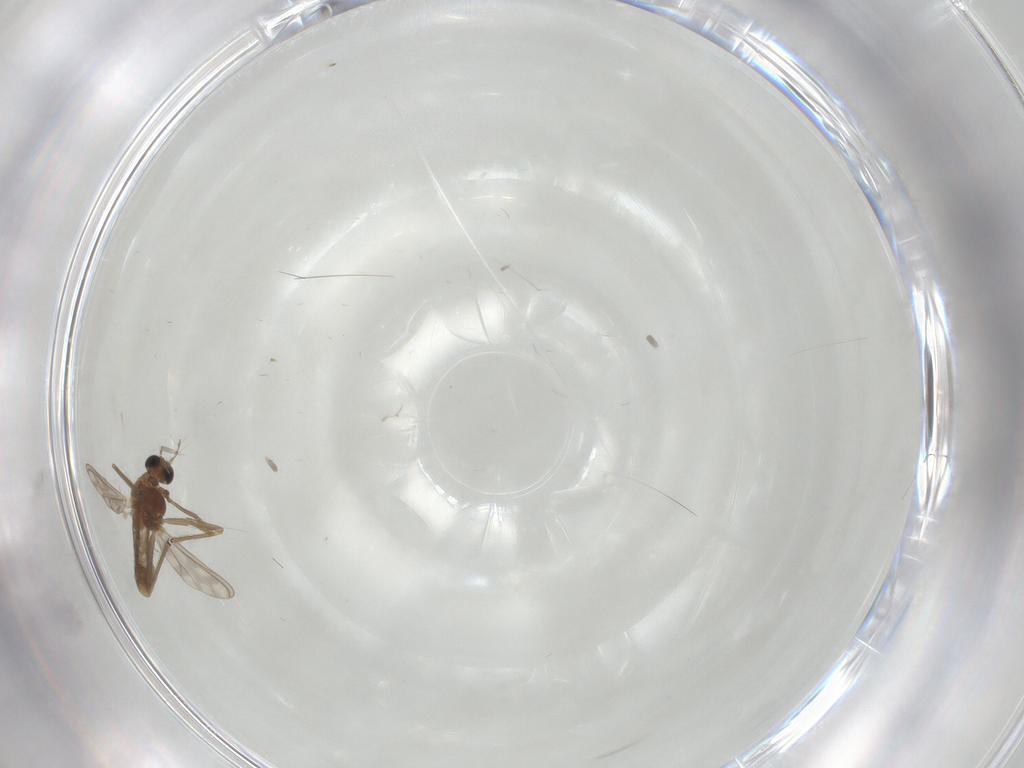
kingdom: Animalia
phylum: Arthropoda
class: Insecta
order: Diptera
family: Chironomidae
